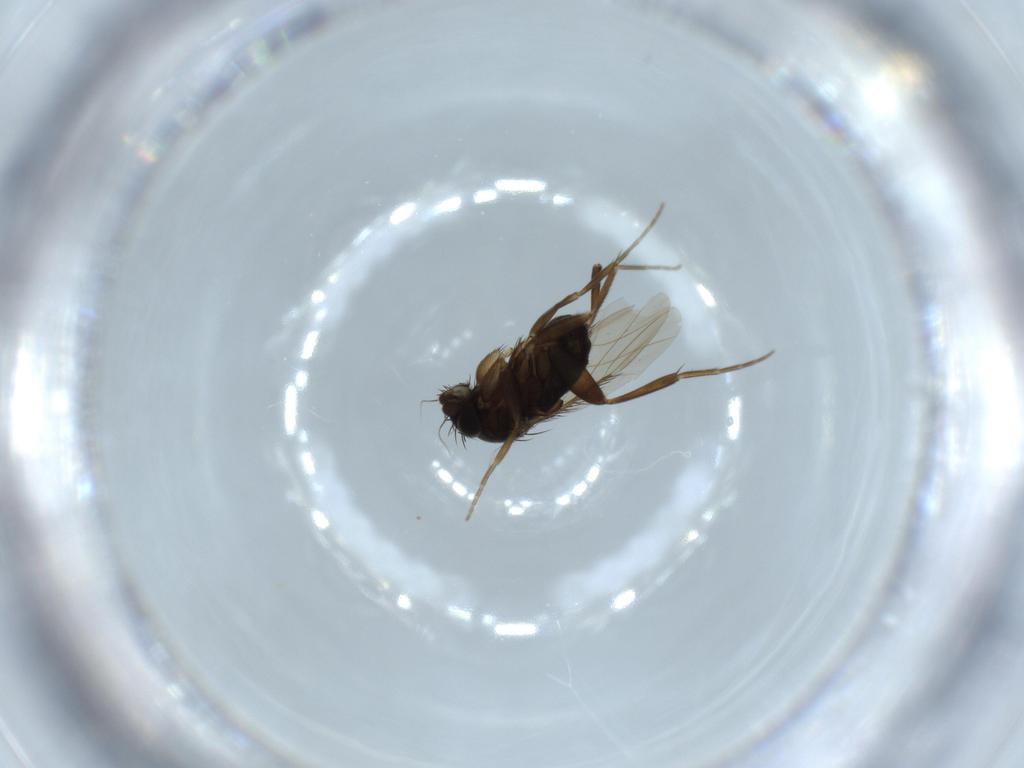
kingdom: Animalia
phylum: Arthropoda
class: Insecta
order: Diptera
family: Phoridae
